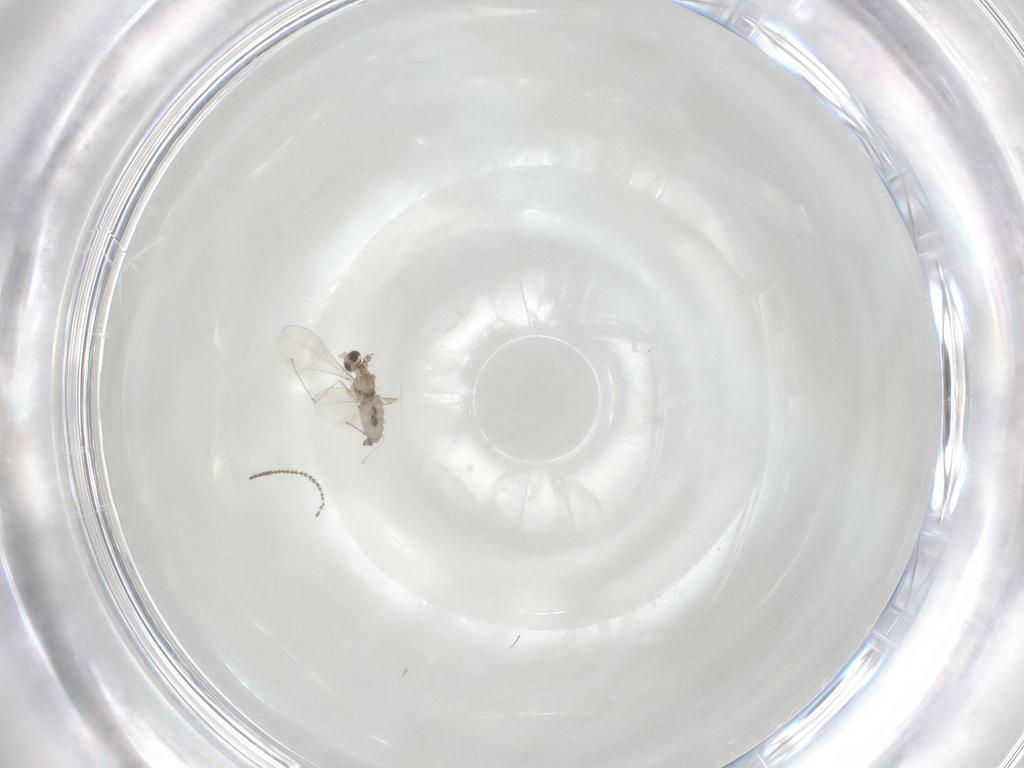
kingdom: Animalia
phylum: Arthropoda
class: Insecta
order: Diptera
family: Cecidomyiidae
